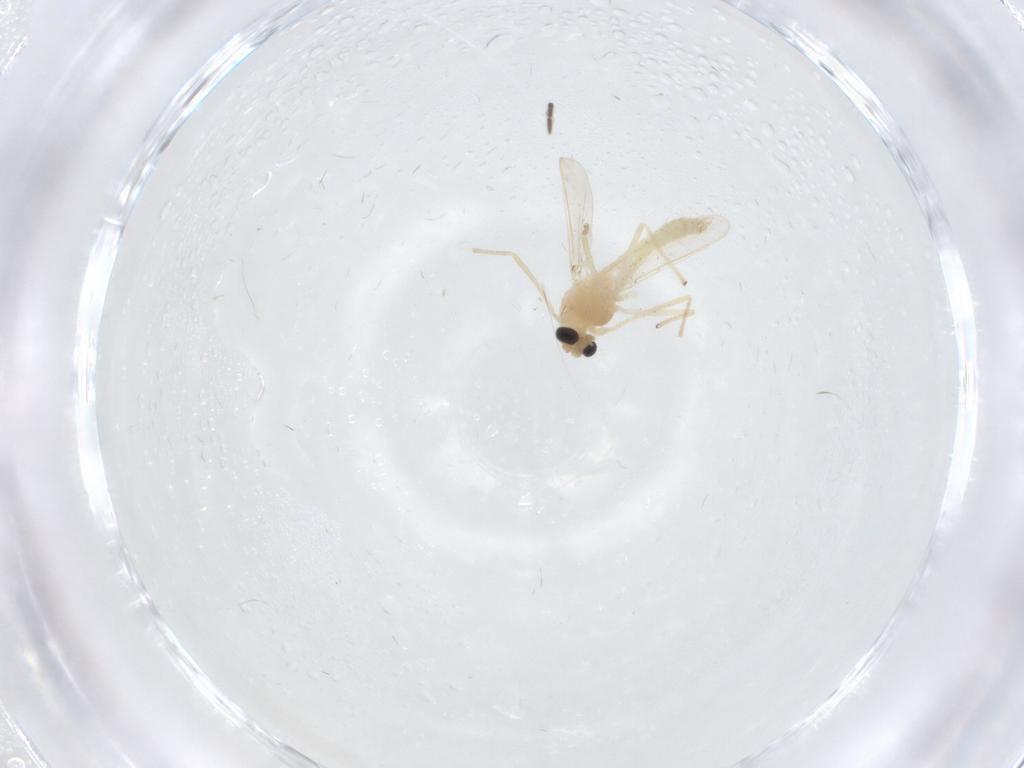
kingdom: Animalia
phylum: Arthropoda
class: Insecta
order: Diptera
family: Chironomidae
